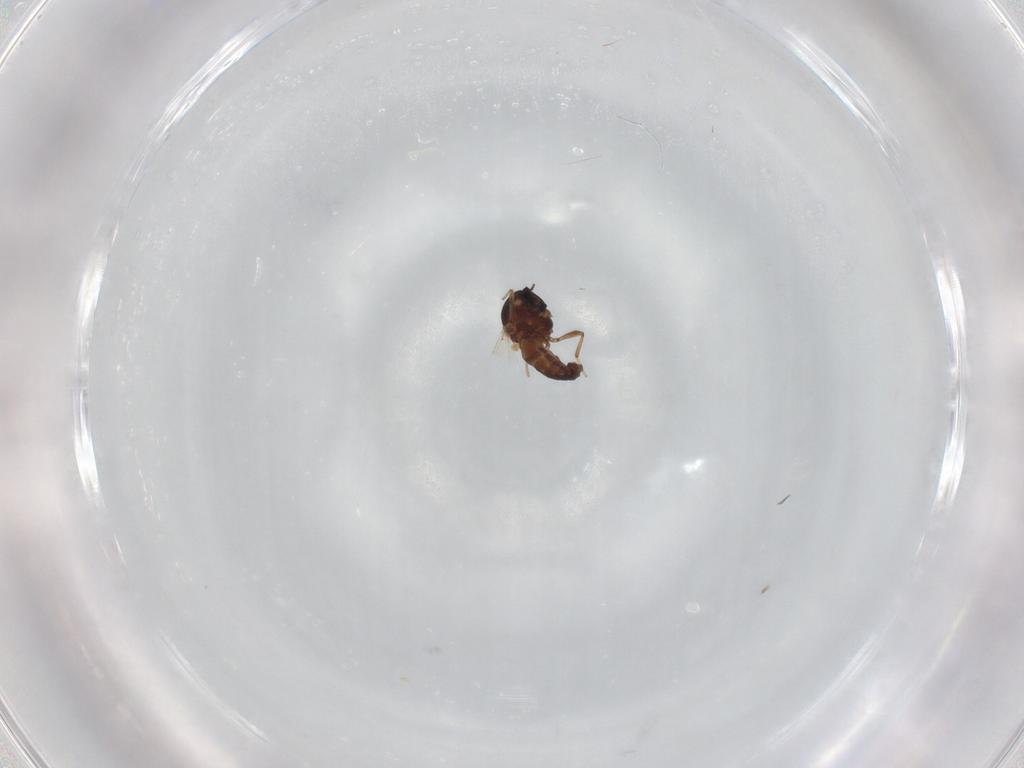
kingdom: Animalia
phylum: Arthropoda
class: Insecta
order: Diptera
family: Ceratopogonidae
